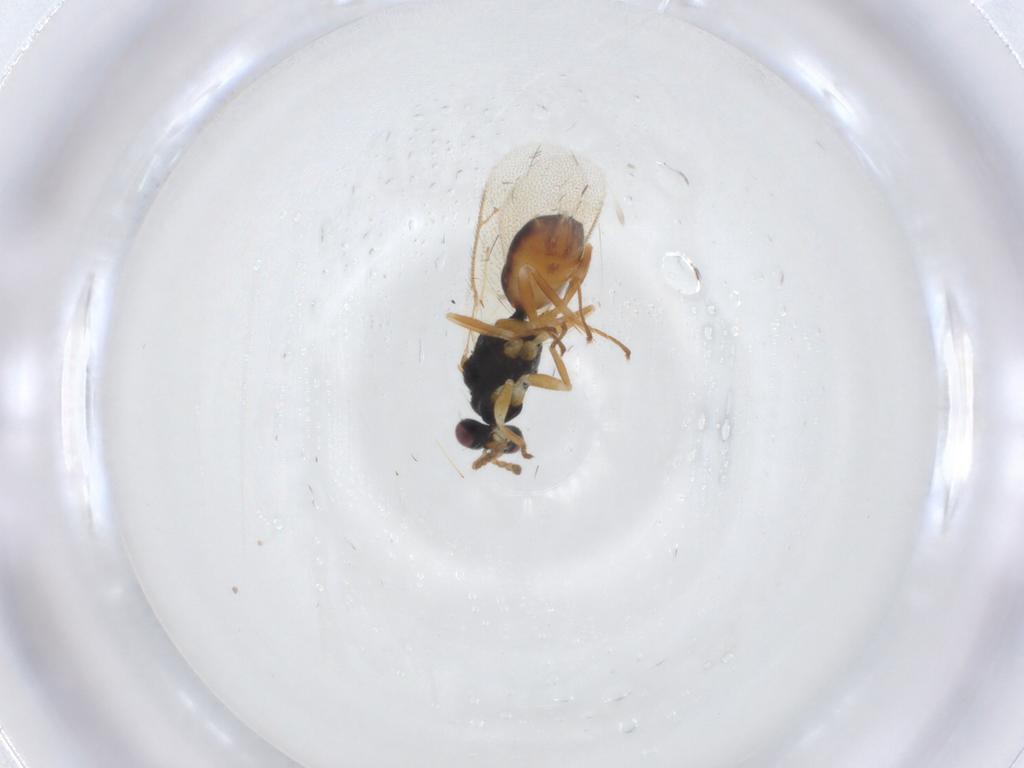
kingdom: Animalia
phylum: Arthropoda
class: Insecta
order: Hymenoptera
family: Eulophidae
